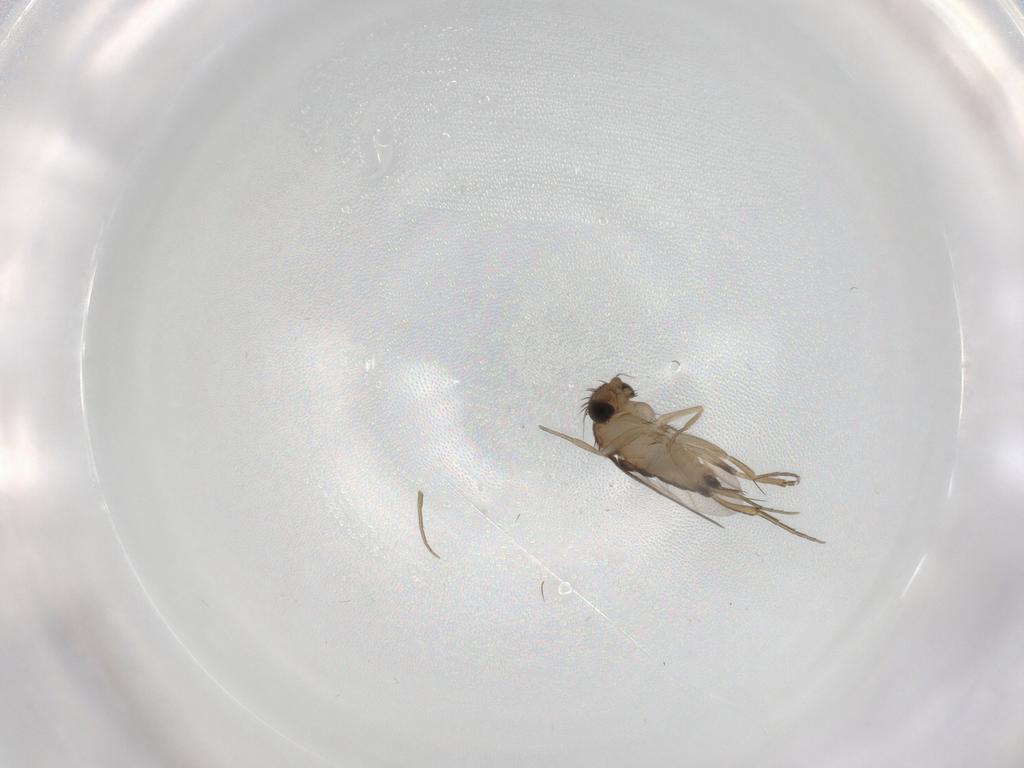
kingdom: Animalia
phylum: Arthropoda
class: Insecta
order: Diptera
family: Phoridae
